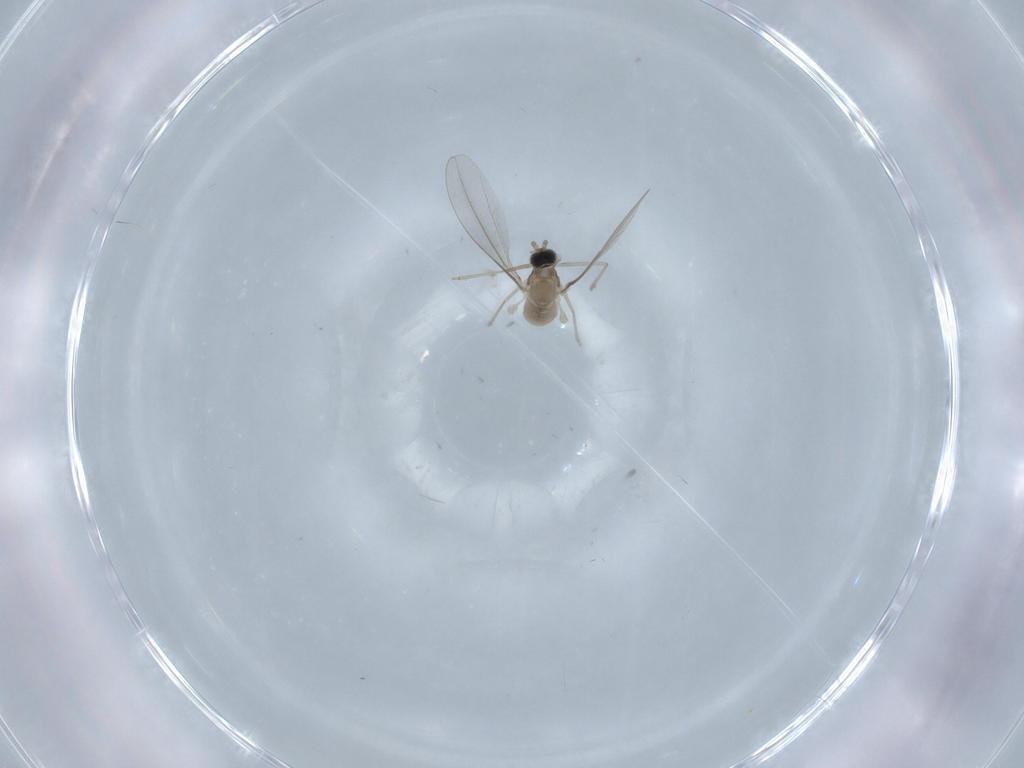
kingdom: Animalia
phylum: Arthropoda
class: Insecta
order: Diptera
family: Cecidomyiidae
